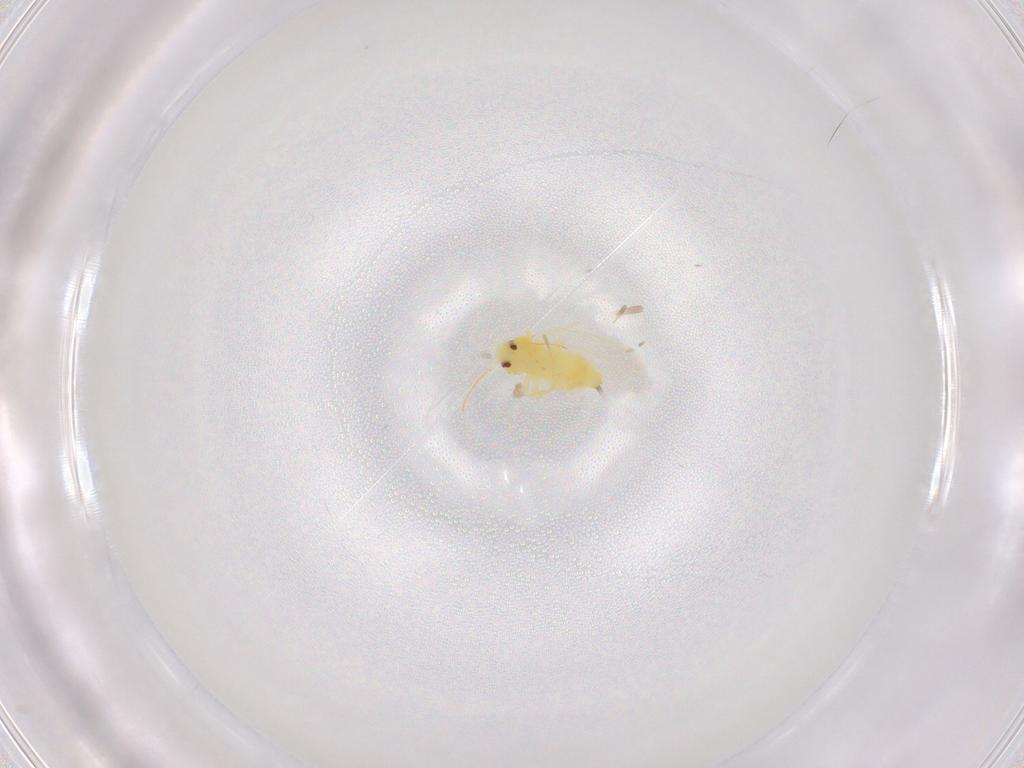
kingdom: Animalia
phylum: Arthropoda
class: Insecta
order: Hemiptera
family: Aleyrodidae
